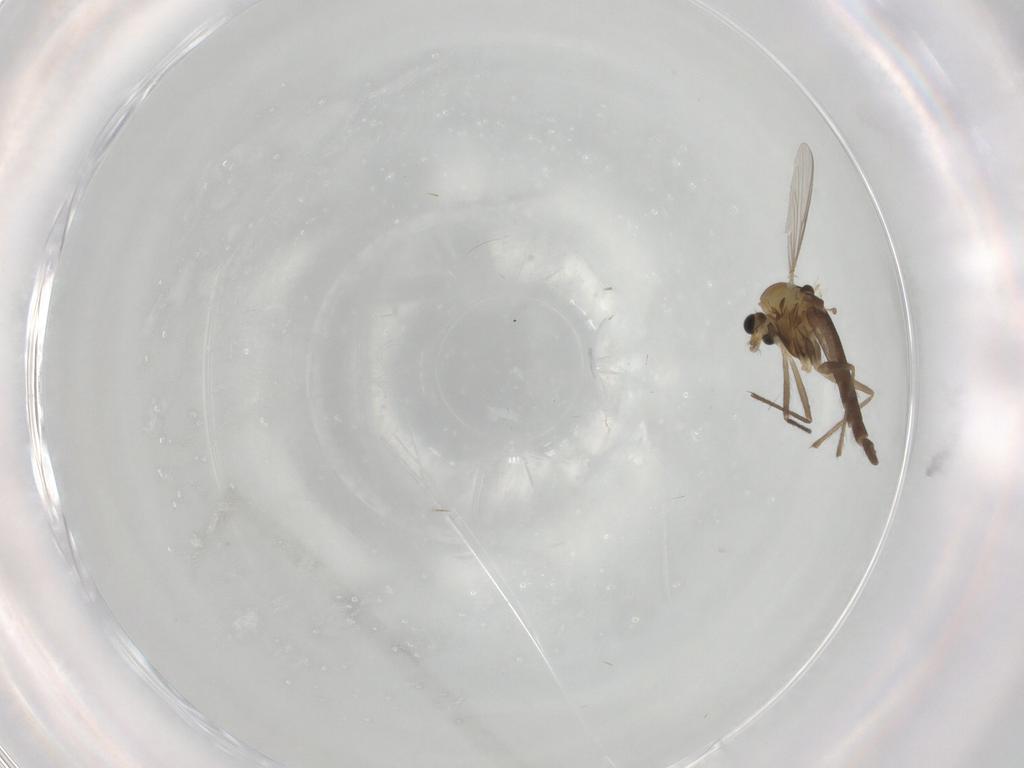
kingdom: Animalia
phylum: Arthropoda
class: Insecta
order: Diptera
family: Chironomidae
